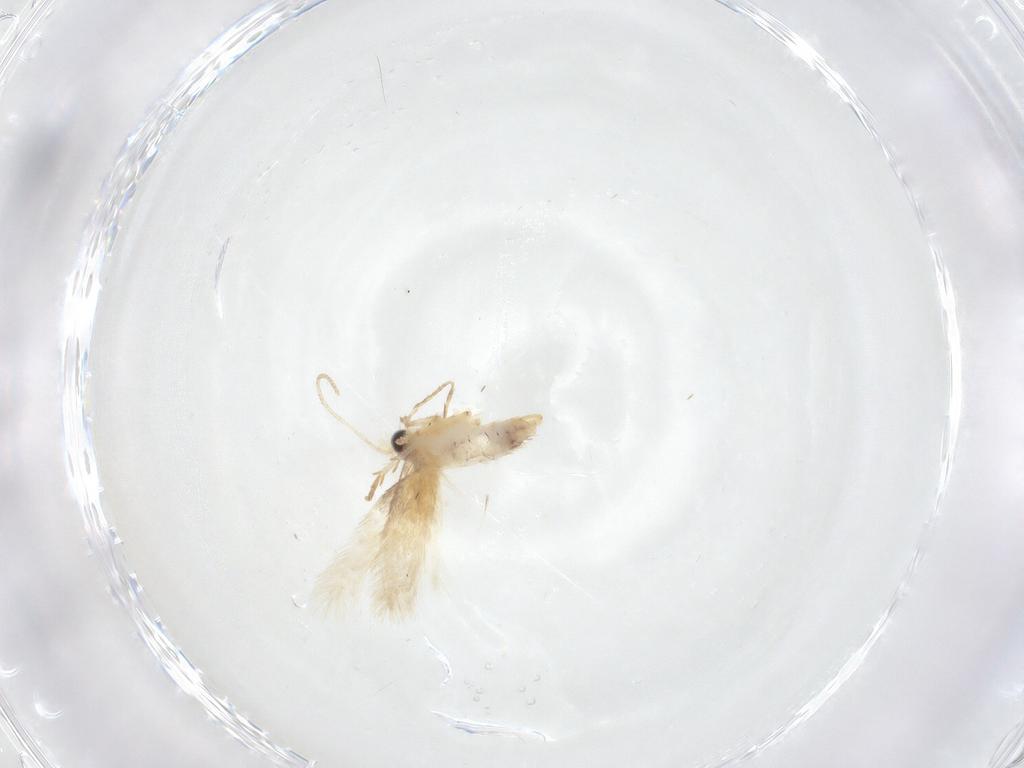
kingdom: Animalia
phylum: Arthropoda
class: Insecta
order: Lepidoptera
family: Nepticulidae
